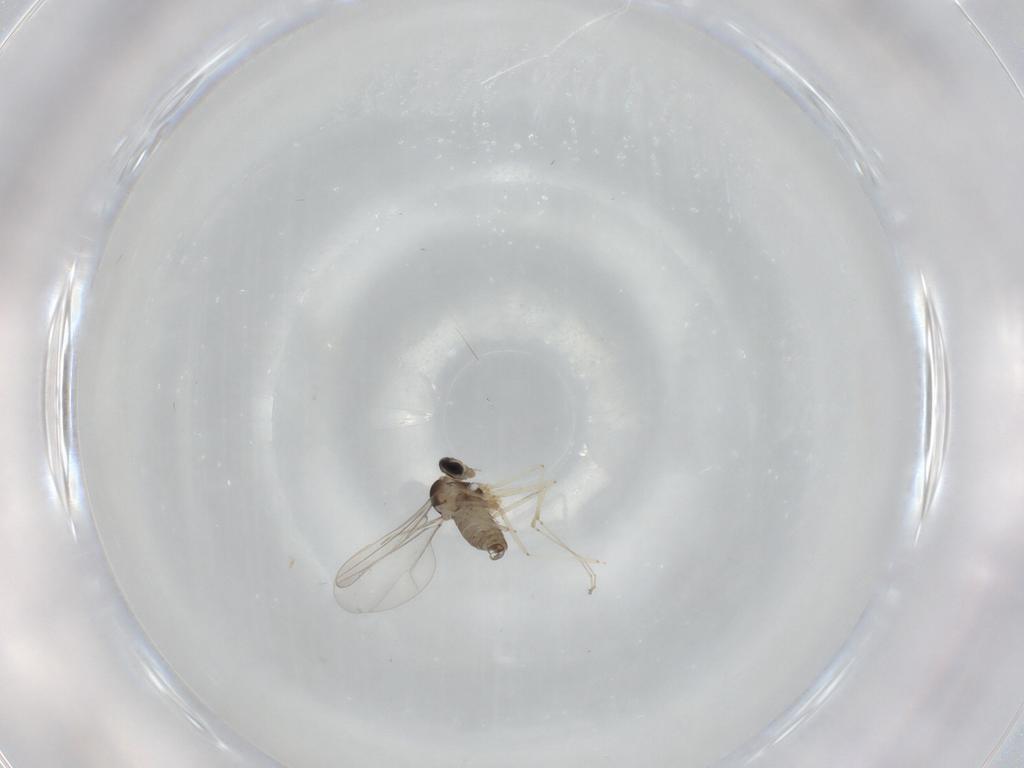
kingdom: Animalia
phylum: Arthropoda
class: Insecta
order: Diptera
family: Cecidomyiidae
